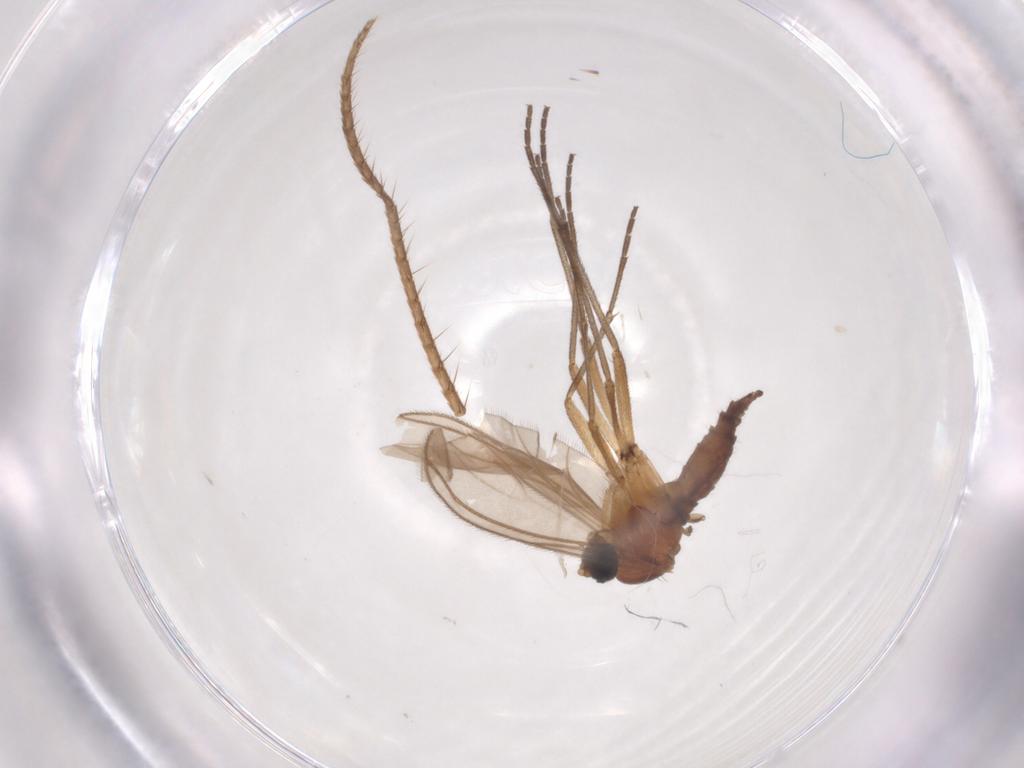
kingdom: Animalia
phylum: Arthropoda
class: Insecta
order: Diptera
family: Sciaridae
